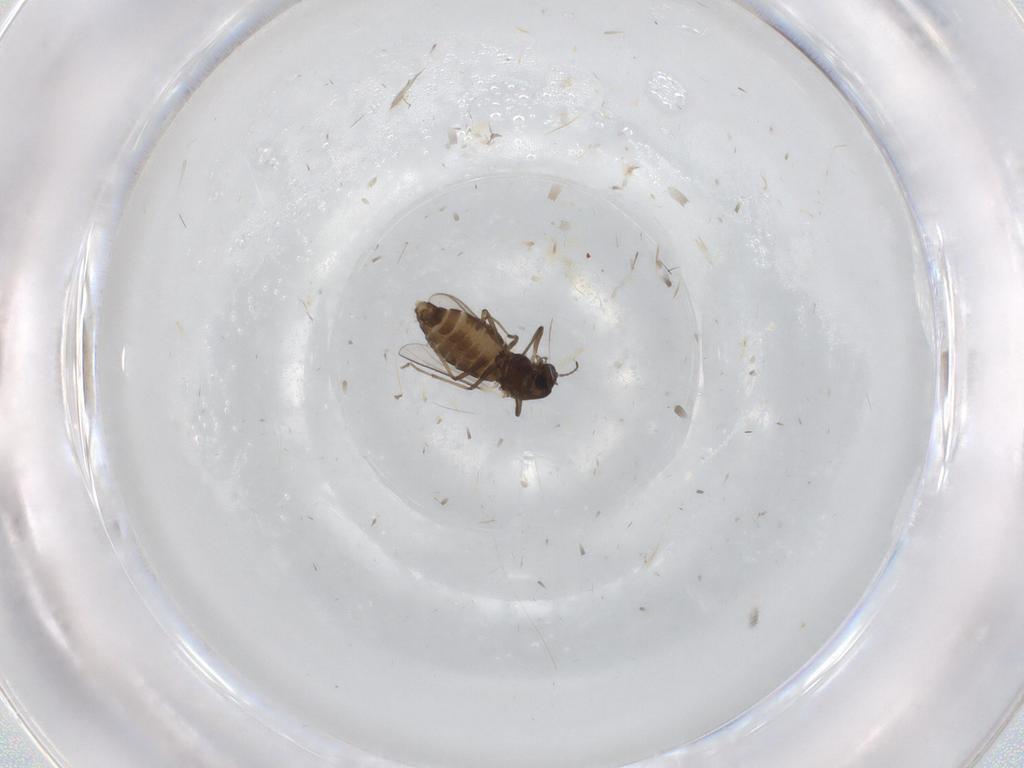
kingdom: Animalia
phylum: Arthropoda
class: Insecta
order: Diptera
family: Chironomidae
